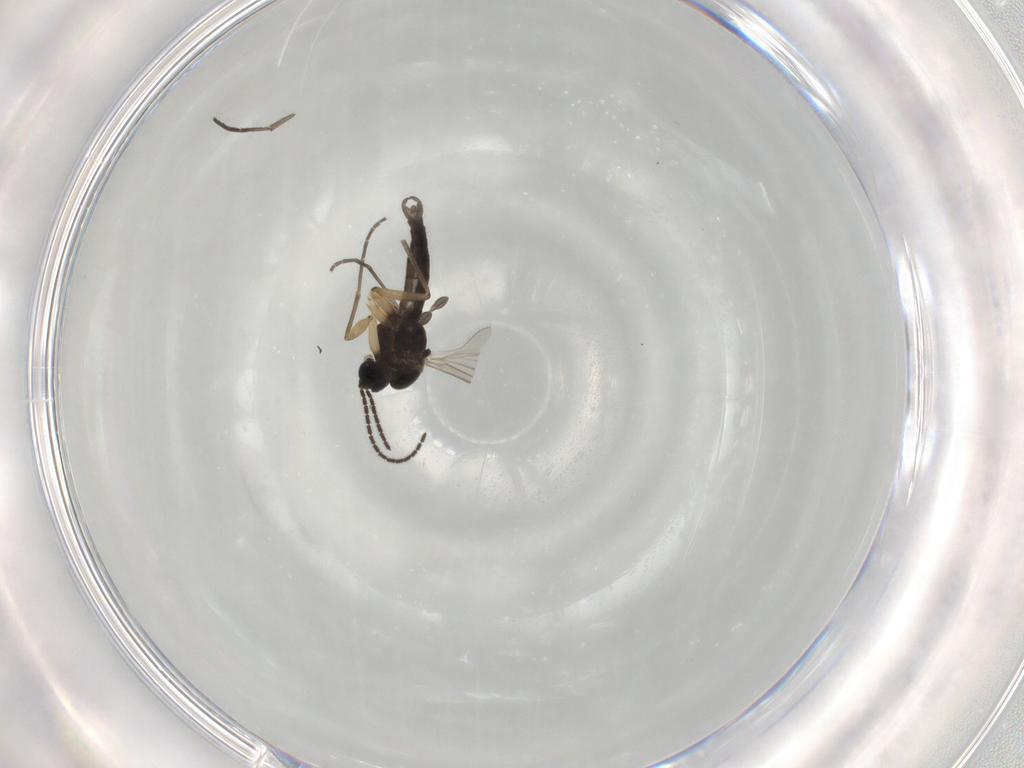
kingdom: Animalia
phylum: Arthropoda
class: Insecta
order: Diptera
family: Sciaridae
